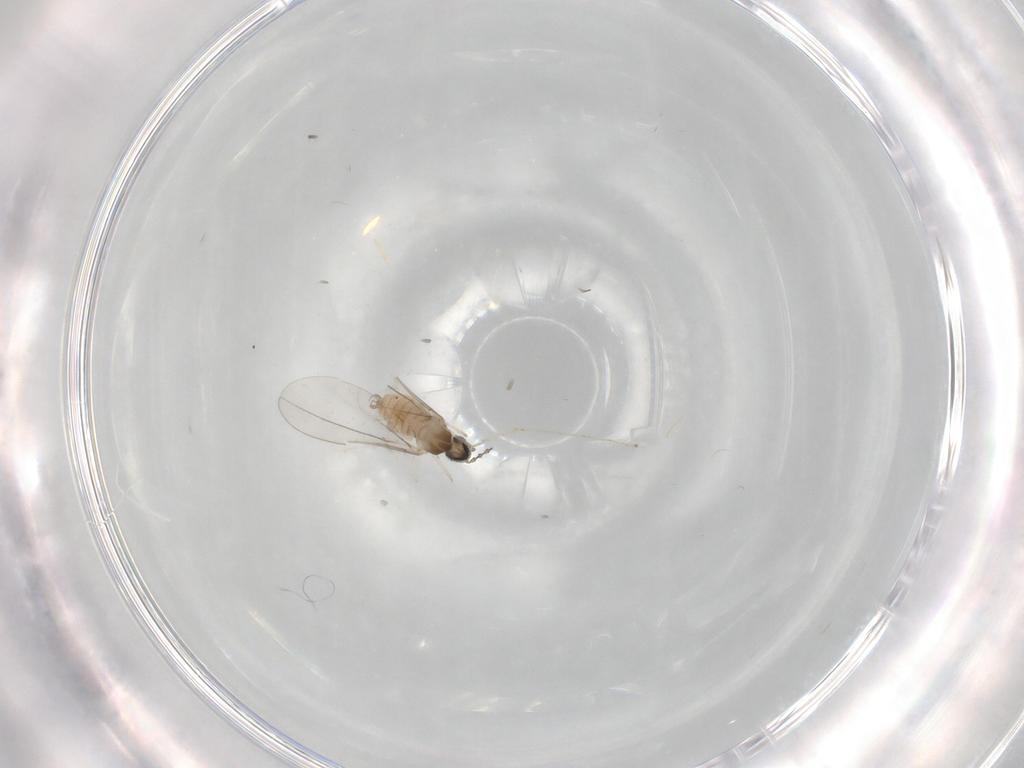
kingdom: Animalia
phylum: Arthropoda
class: Insecta
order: Diptera
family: Cecidomyiidae
